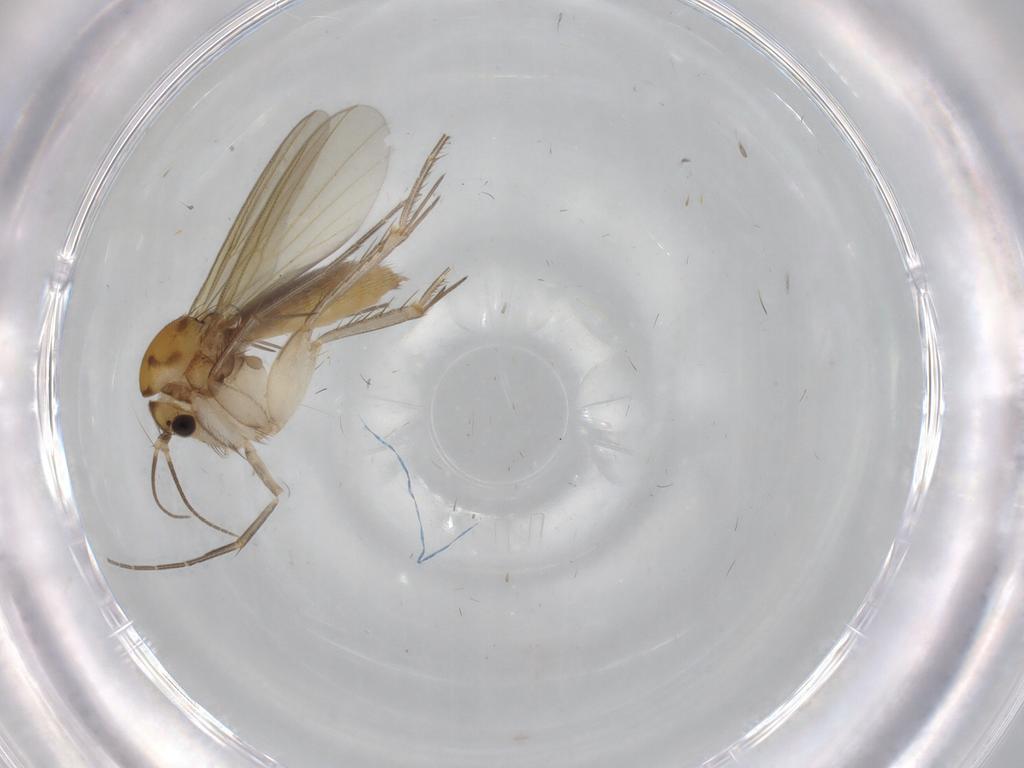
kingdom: Animalia
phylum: Arthropoda
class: Insecta
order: Diptera
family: Mycetophilidae
